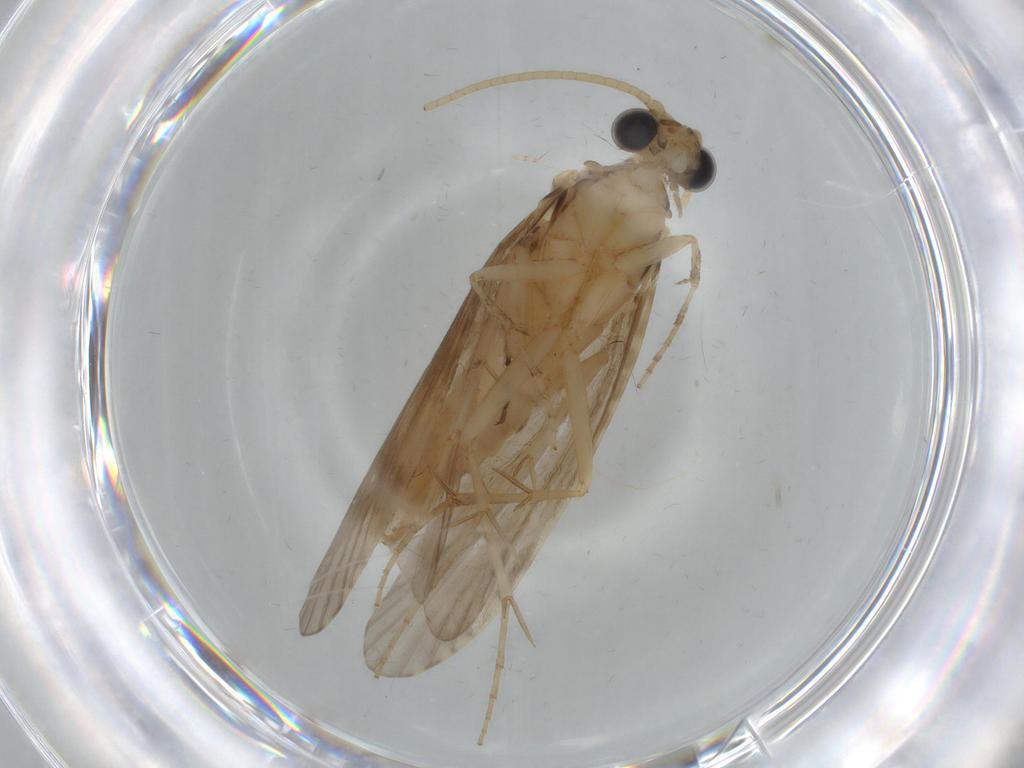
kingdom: Animalia
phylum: Arthropoda
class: Insecta
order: Trichoptera
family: Ecnomidae
